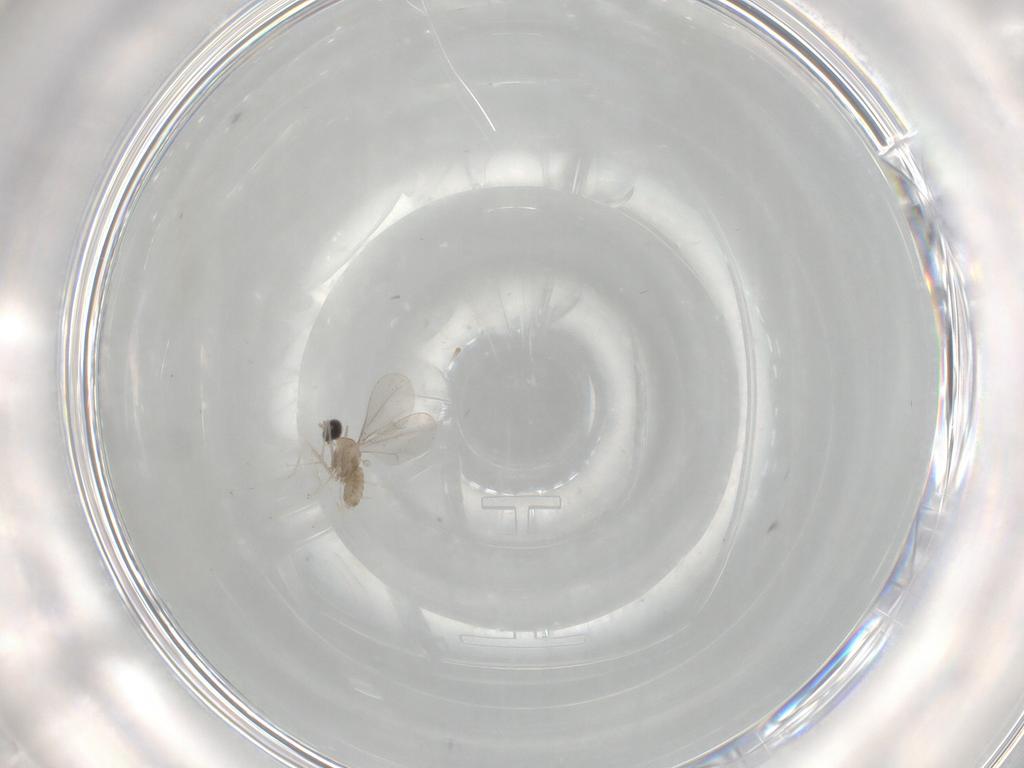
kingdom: Animalia
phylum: Arthropoda
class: Insecta
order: Diptera
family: Cecidomyiidae
